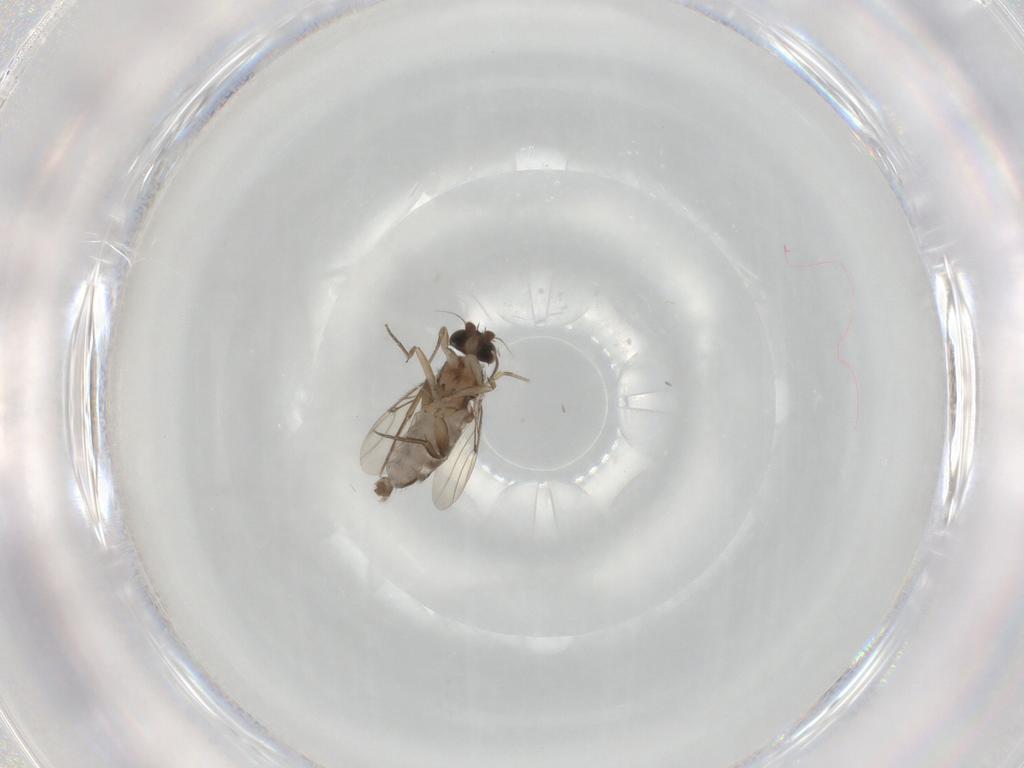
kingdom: Animalia
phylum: Arthropoda
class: Insecta
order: Diptera
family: Phoridae
